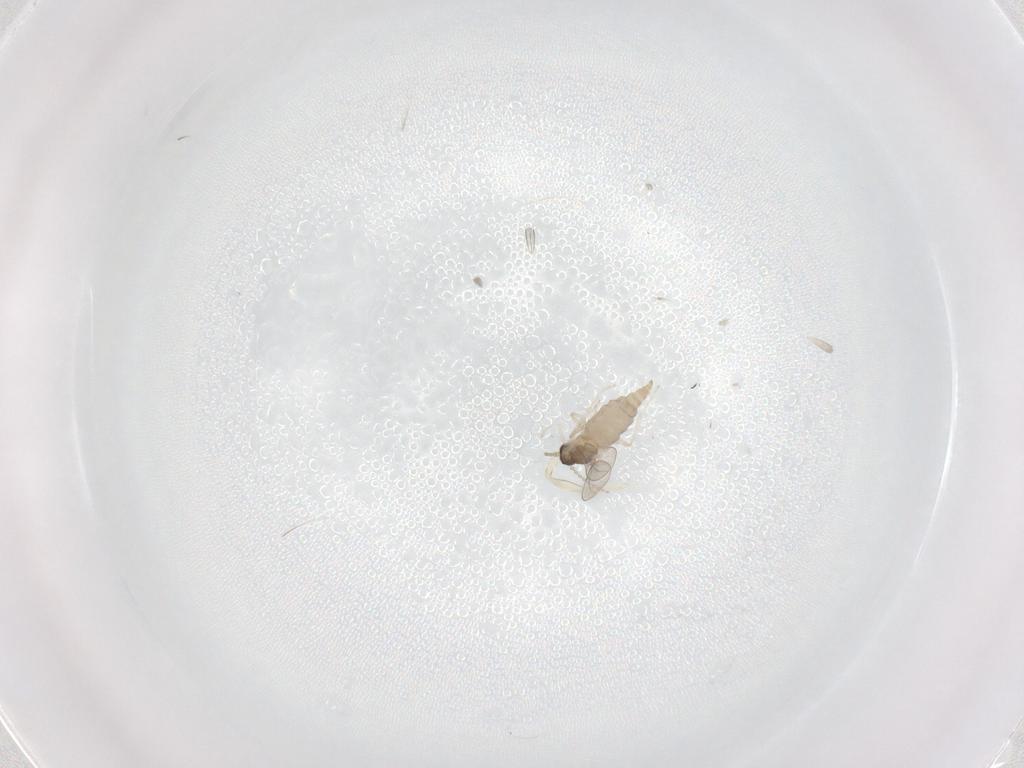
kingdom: Animalia
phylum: Arthropoda
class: Insecta
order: Diptera
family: Cecidomyiidae
